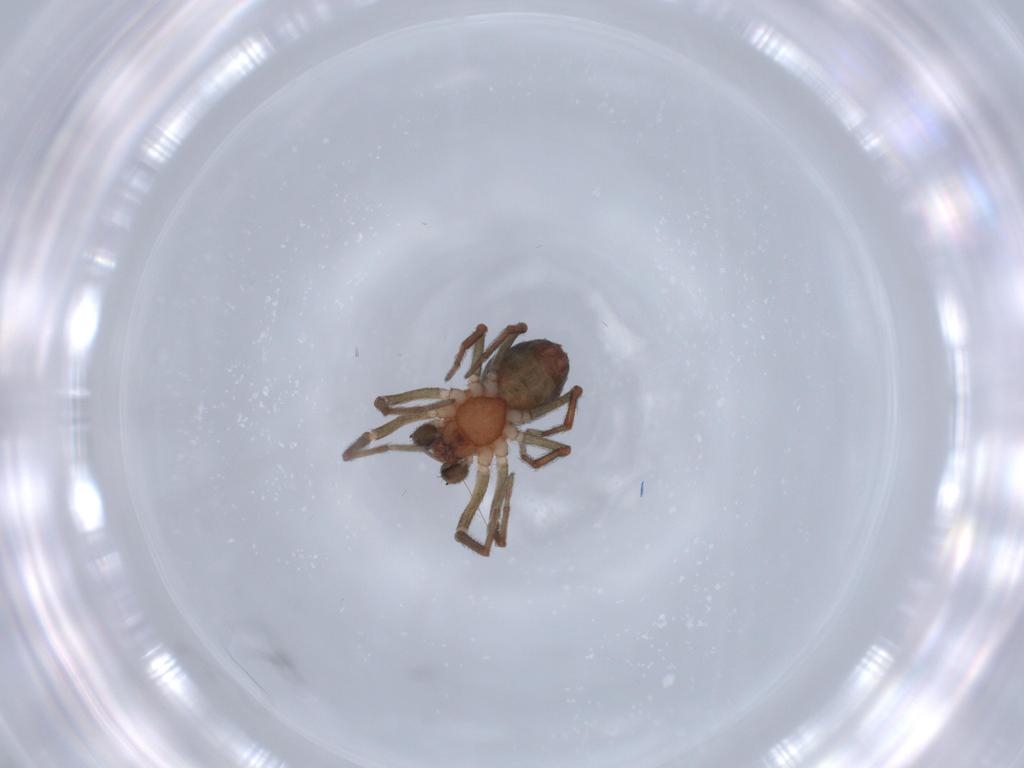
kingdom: Animalia
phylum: Arthropoda
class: Arachnida
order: Araneae
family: Dictynidae
